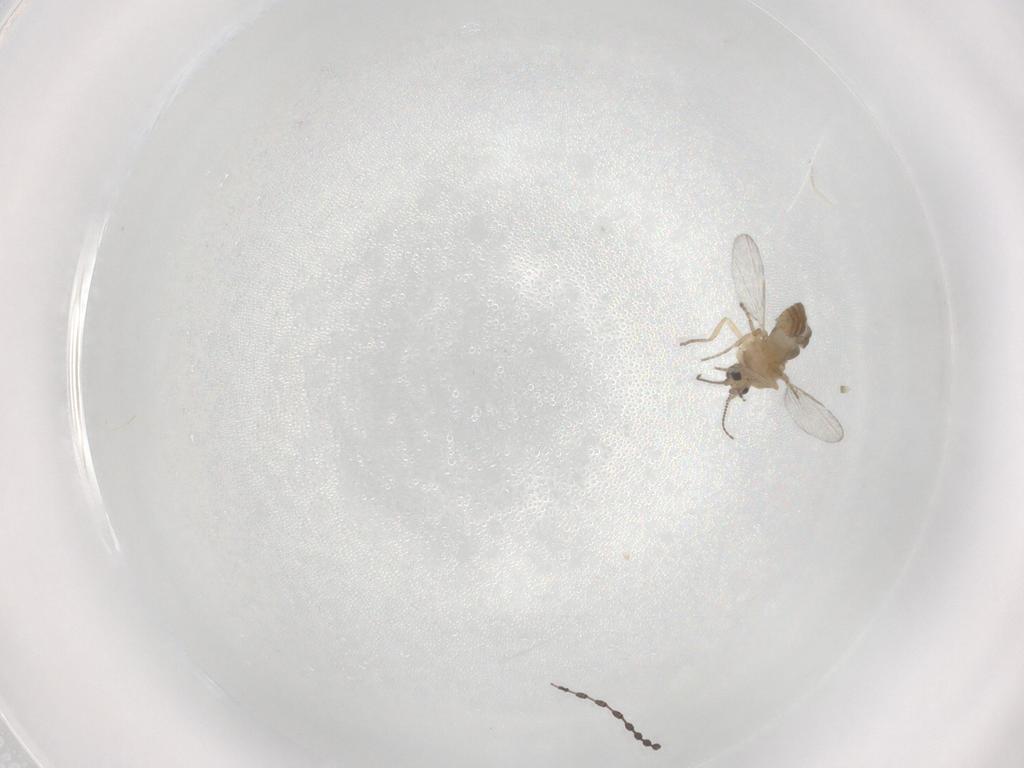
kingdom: Animalia
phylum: Arthropoda
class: Insecta
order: Diptera
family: Ceratopogonidae
